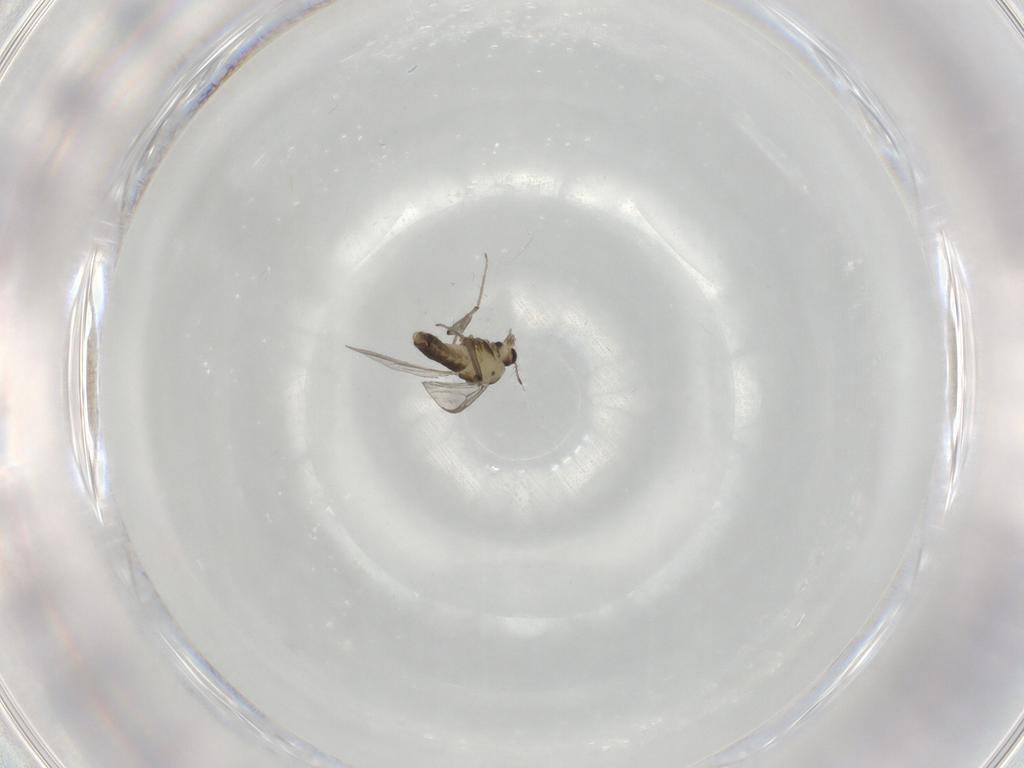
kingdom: Animalia
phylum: Arthropoda
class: Insecta
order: Diptera
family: Chironomidae
